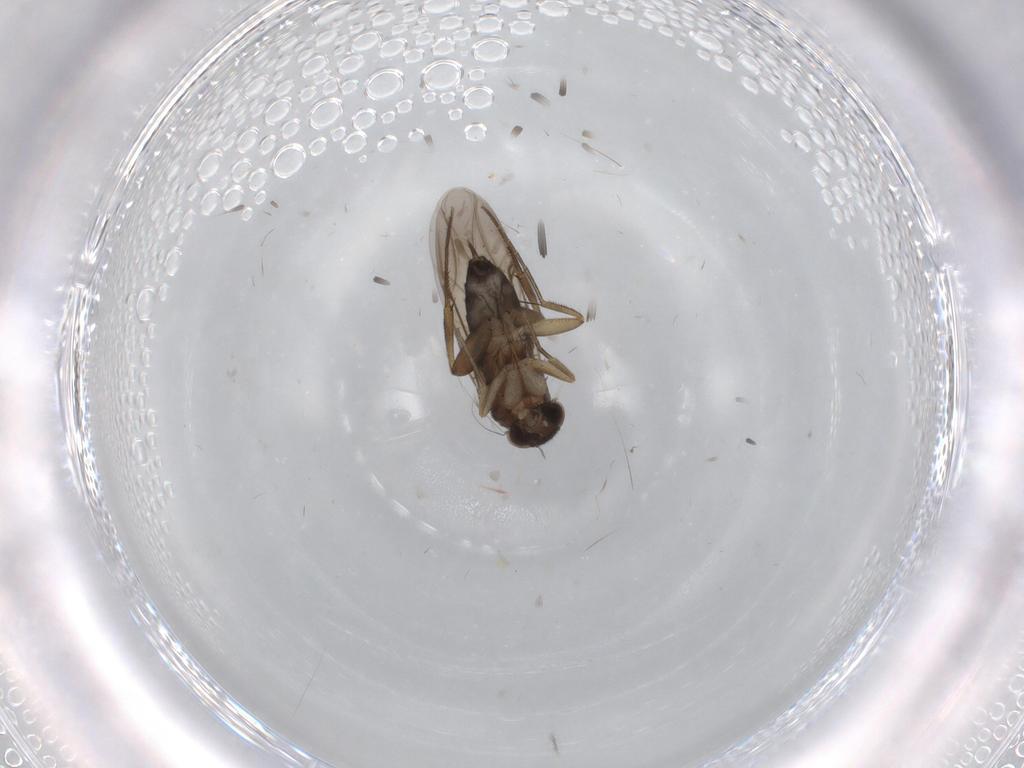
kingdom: Animalia
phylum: Arthropoda
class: Insecta
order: Diptera
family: Phoridae
